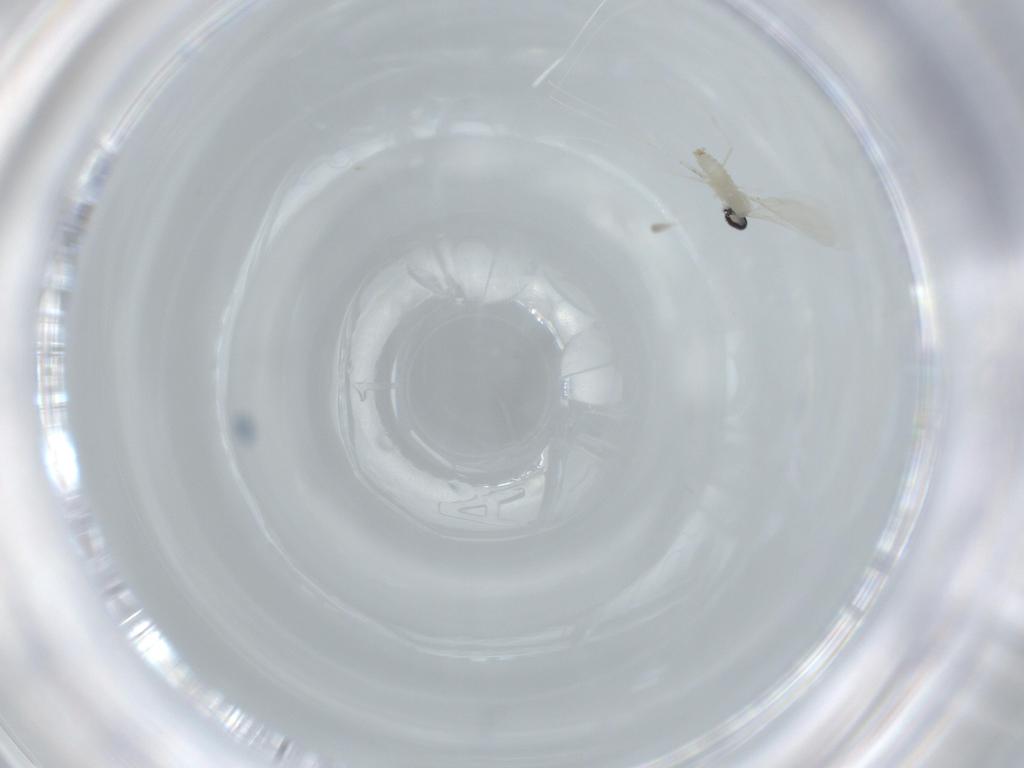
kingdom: Animalia
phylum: Arthropoda
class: Insecta
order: Diptera
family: Cecidomyiidae
